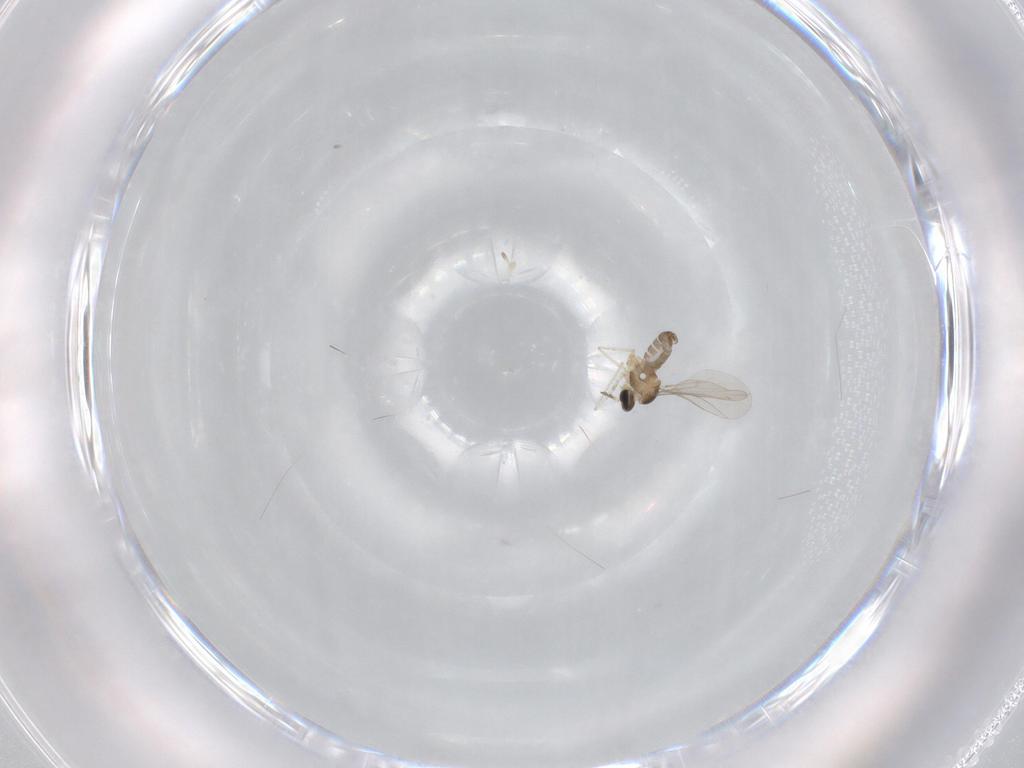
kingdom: Animalia
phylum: Arthropoda
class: Insecta
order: Diptera
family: Cecidomyiidae
